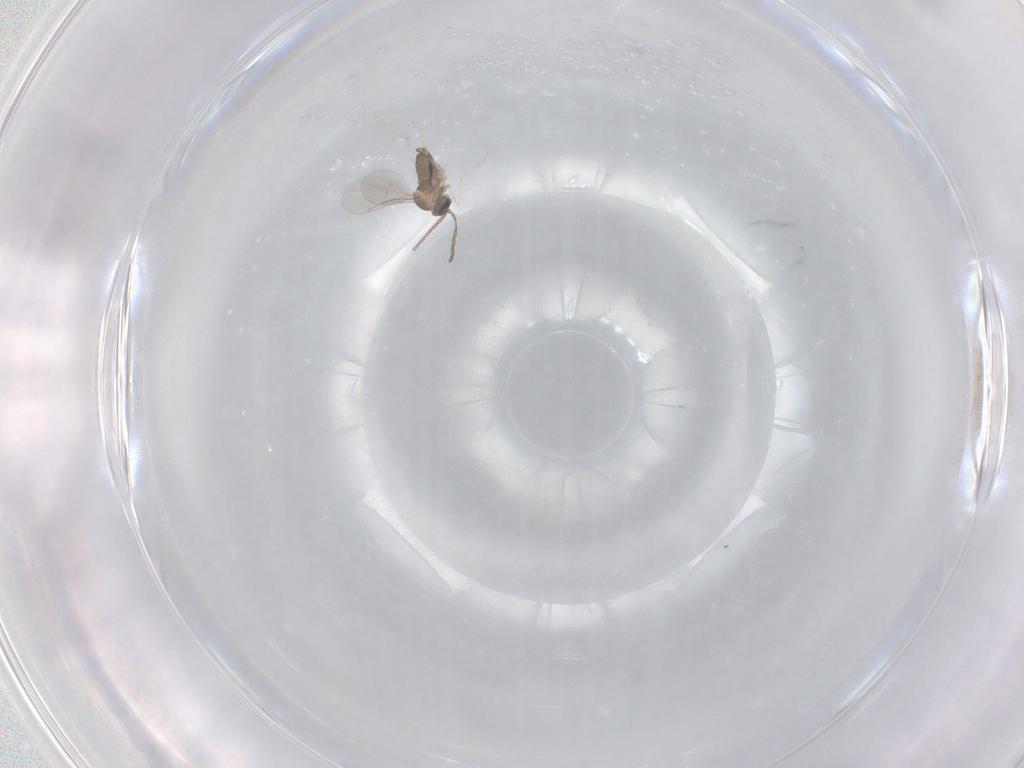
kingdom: Animalia
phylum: Arthropoda
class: Insecta
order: Diptera
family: Cecidomyiidae
